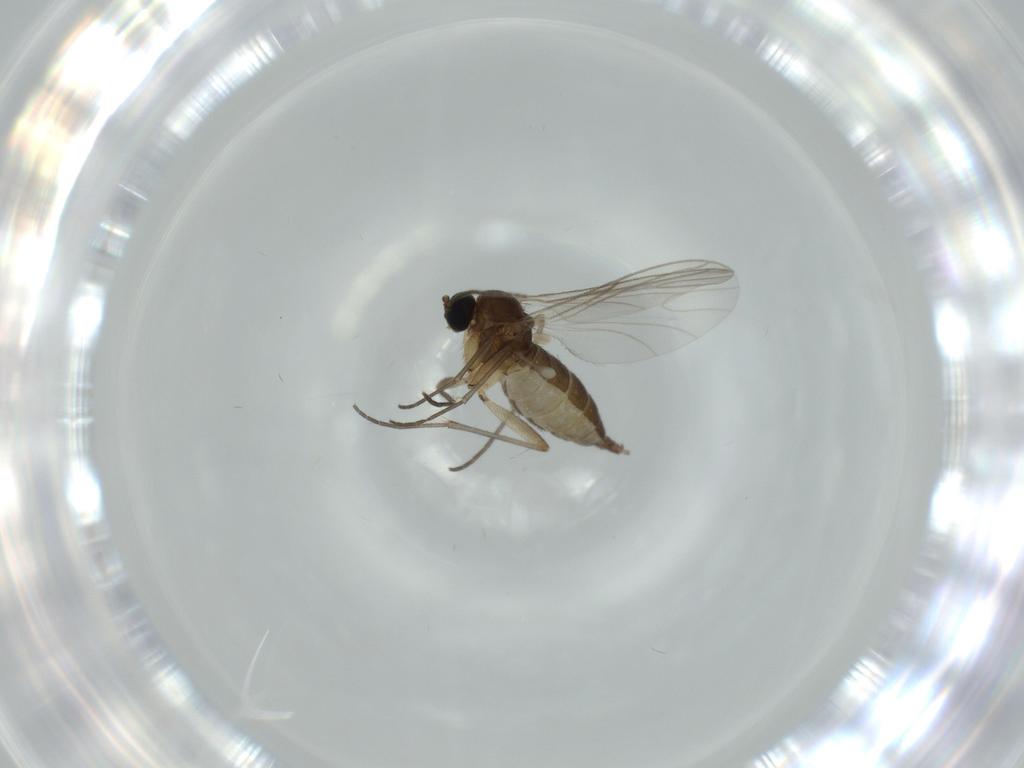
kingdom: Animalia
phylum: Arthropoda
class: Insecta
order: Diptera
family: Sciaridae
